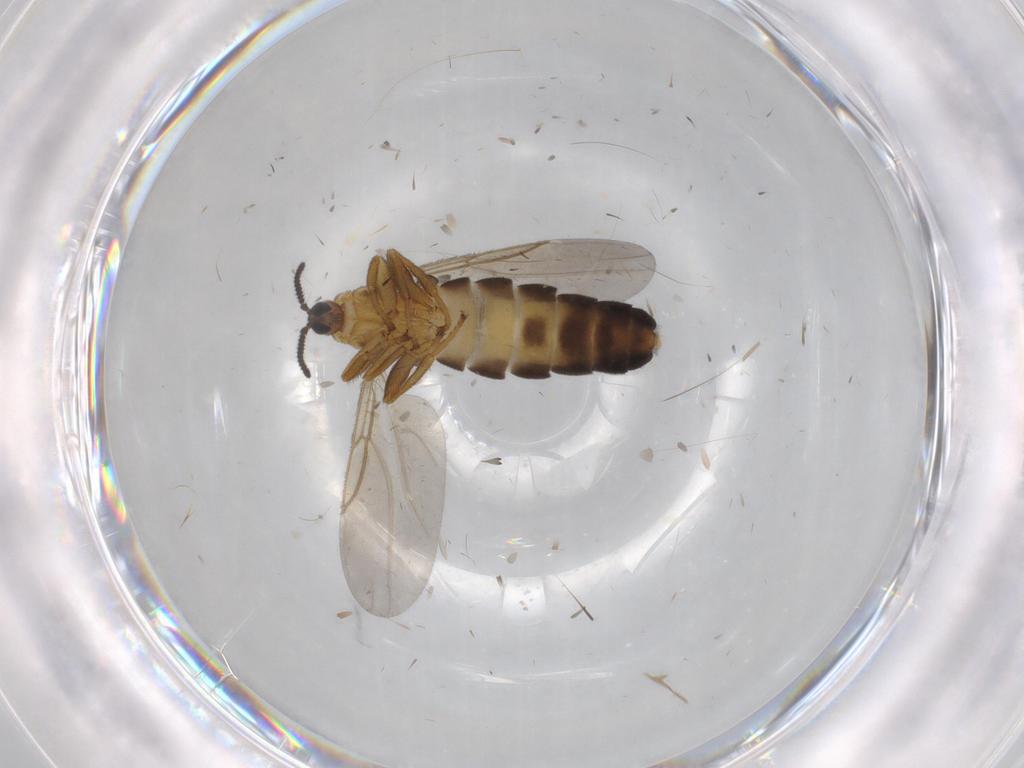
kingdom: Animalia
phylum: Arthropoda
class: Insecta
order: Diptera
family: Scatopsidae
